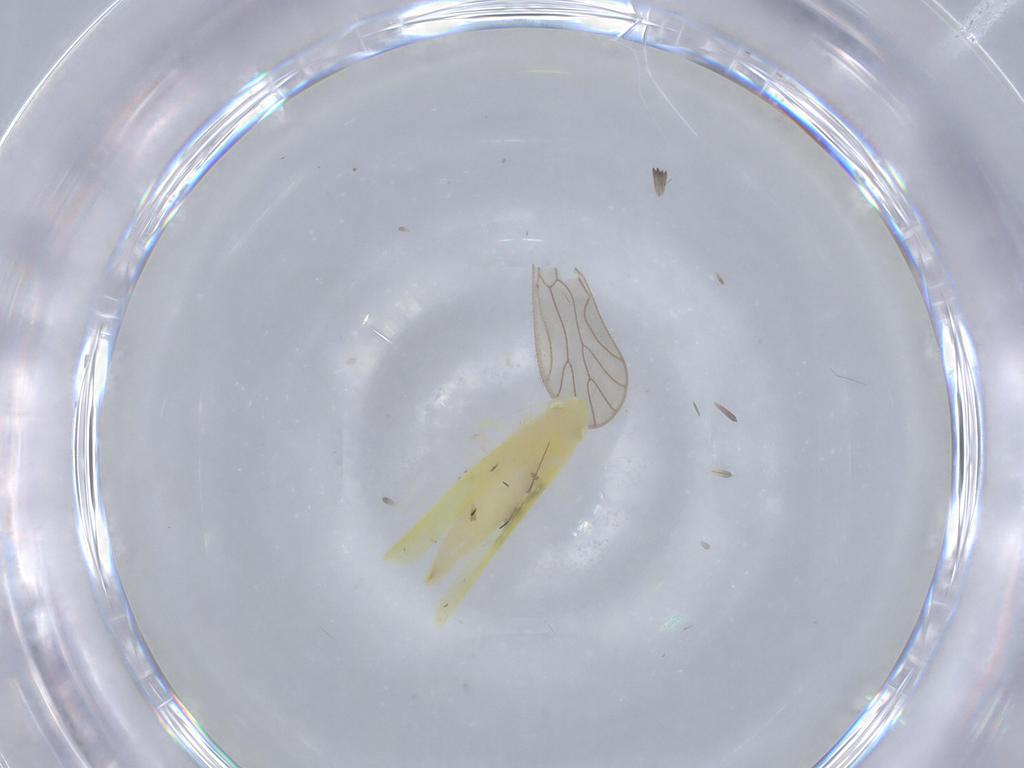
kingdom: Animalia
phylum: Arthropoda
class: Insecta
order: Hemiptera
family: Cicadellidae
